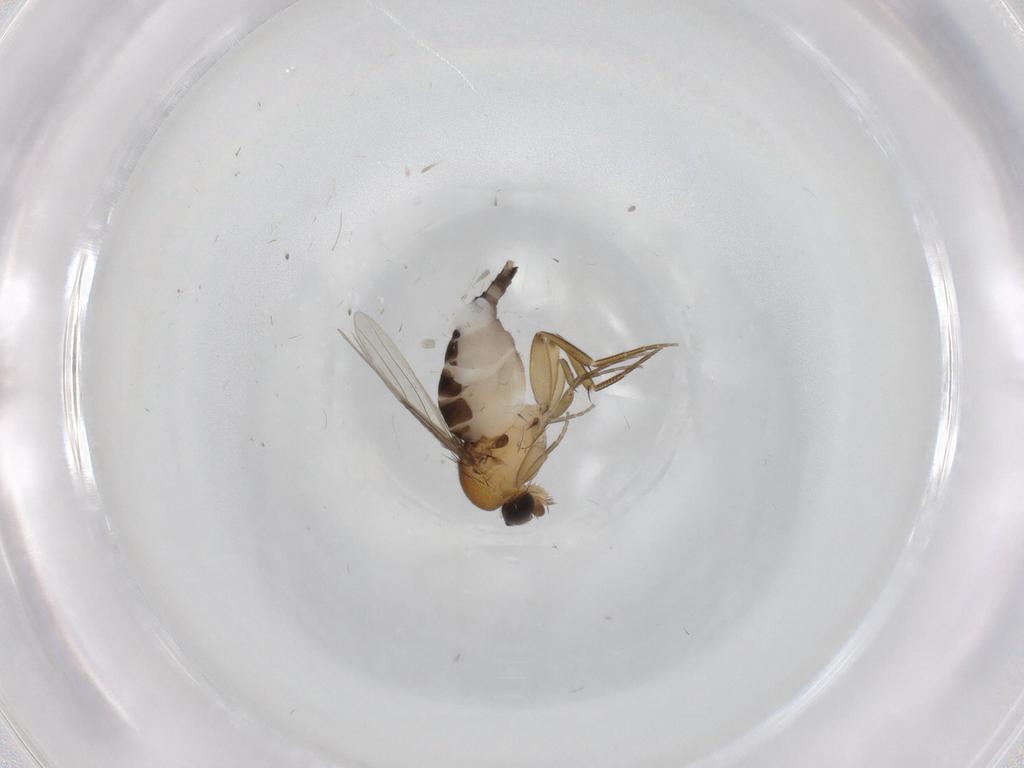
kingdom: Animalia
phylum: Arthropoda
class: Insecta
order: Diptera
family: Phoridae
